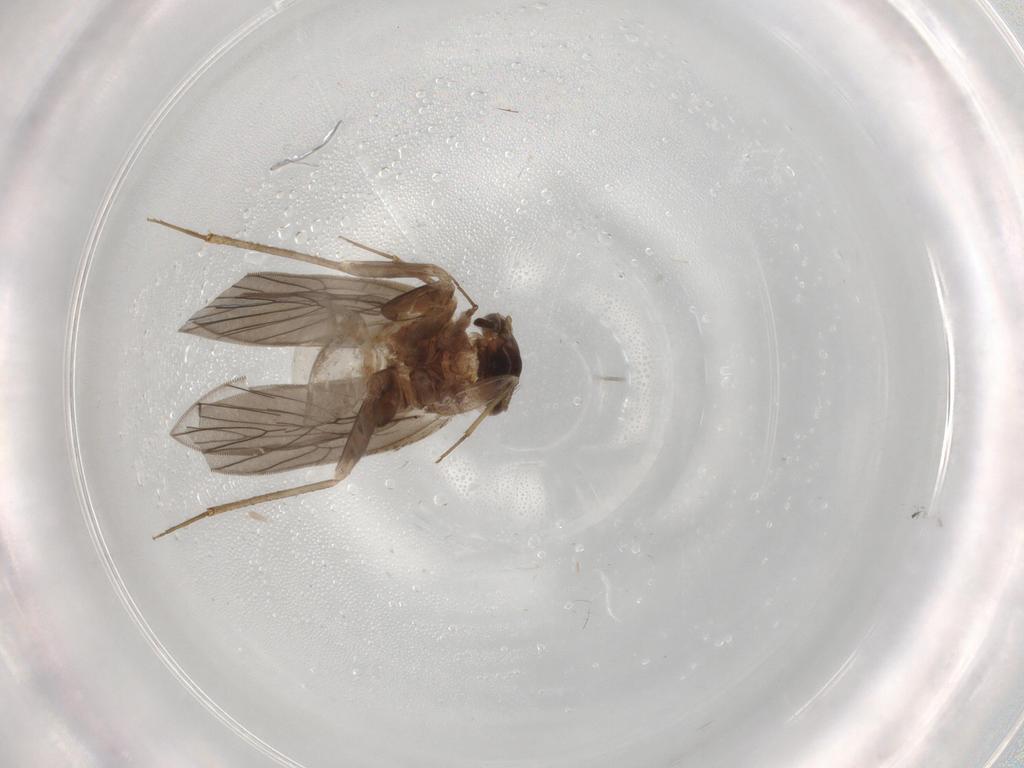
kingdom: Animalia
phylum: Arthropoda
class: Insecta
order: Psocodea
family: Lepidopsocidae
